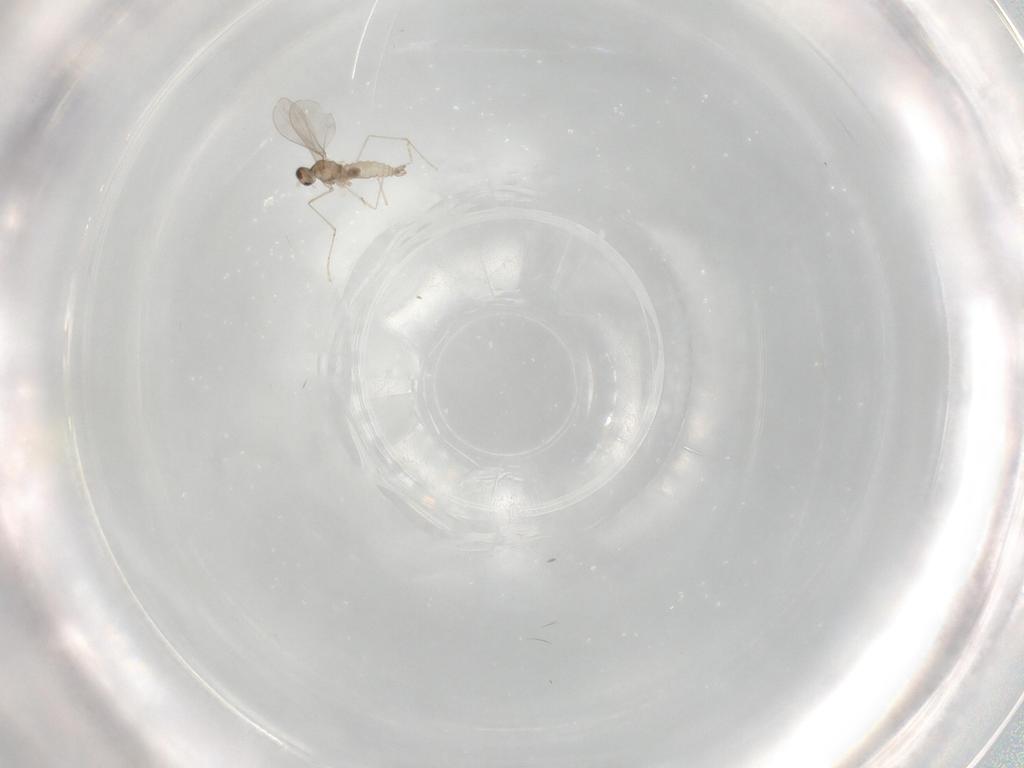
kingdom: Animalia
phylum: Arthropoda
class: Insecta
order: Diptera
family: Cecidomyiidae
